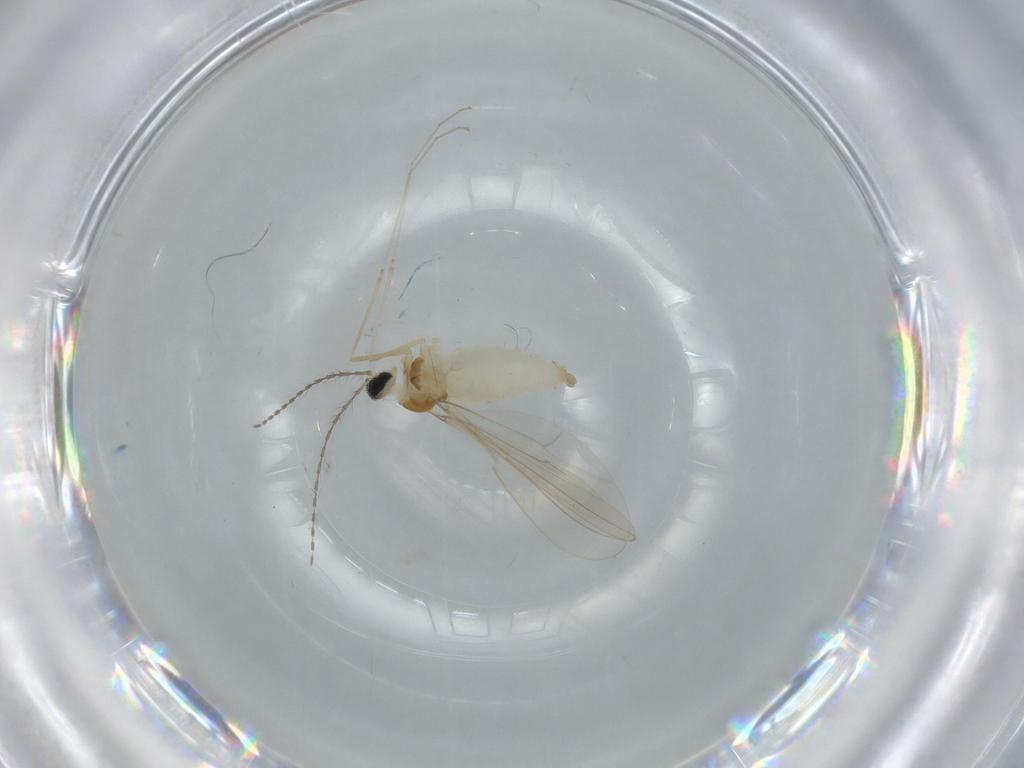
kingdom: Animalia
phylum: Arthropoda
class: Insecta
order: Diptera
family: Cecidomyiidae
